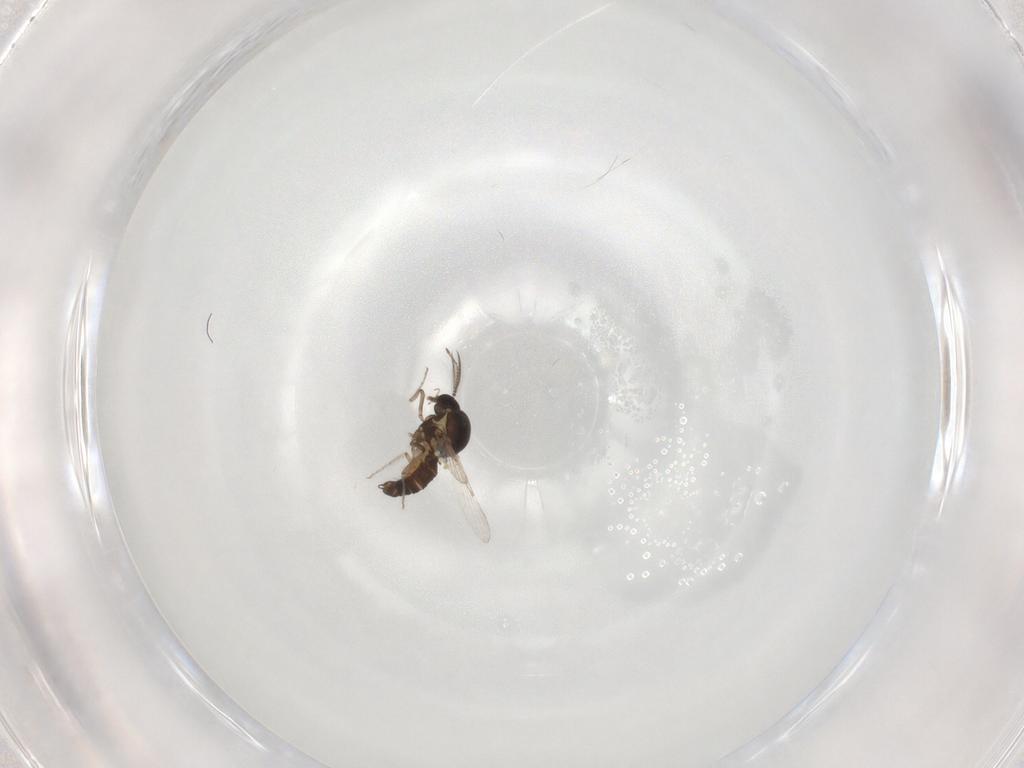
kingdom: Animalia
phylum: Arthropoda
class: Insecta
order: Diptera
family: Ceratopogonidae
